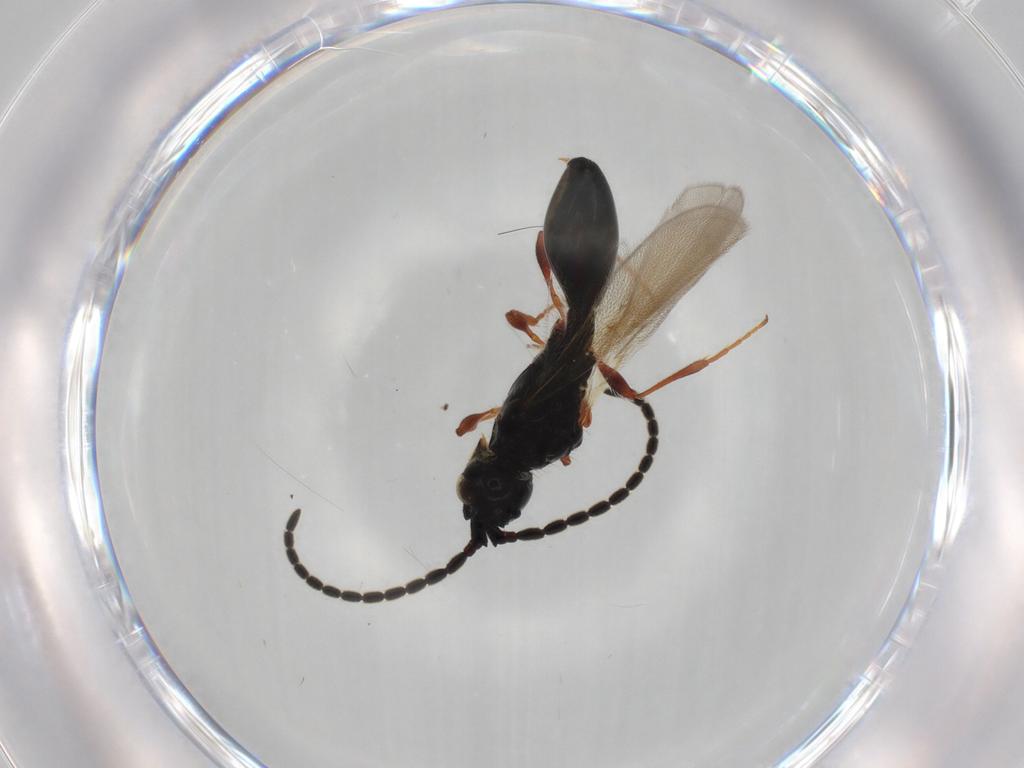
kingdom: Animalia
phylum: Arthropoda
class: Insecta
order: Hymenoptera
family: Diapriidae
